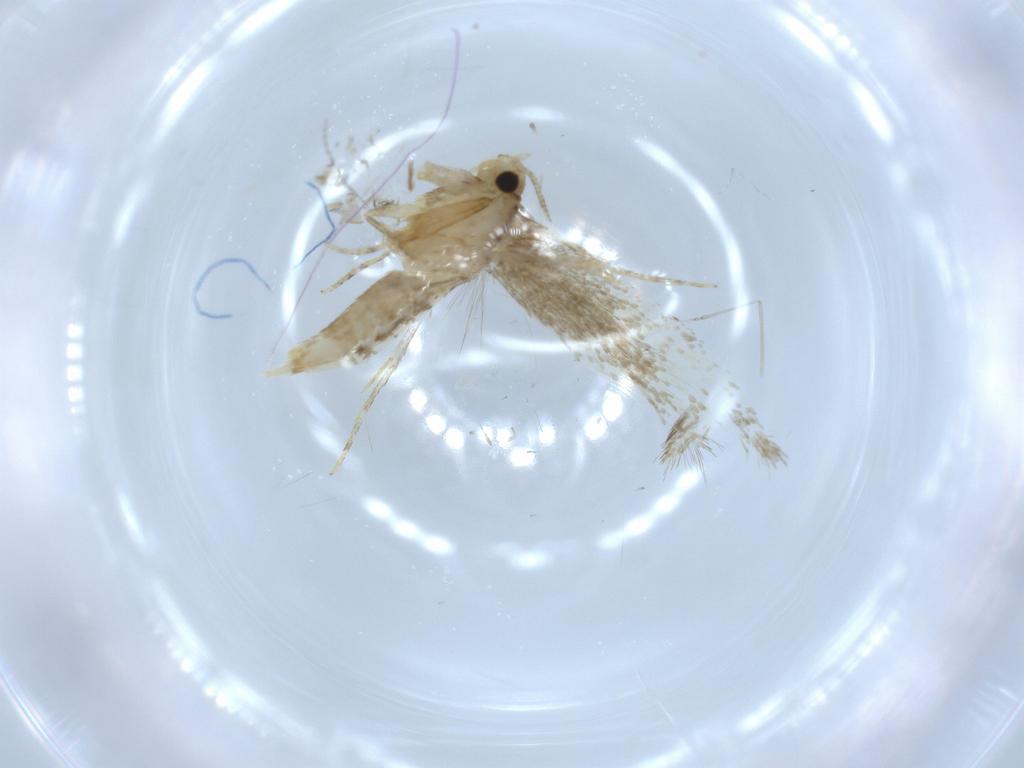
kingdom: Animalia
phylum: Arthropoda
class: Insecta
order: Lepidoptera
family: Tineidae
